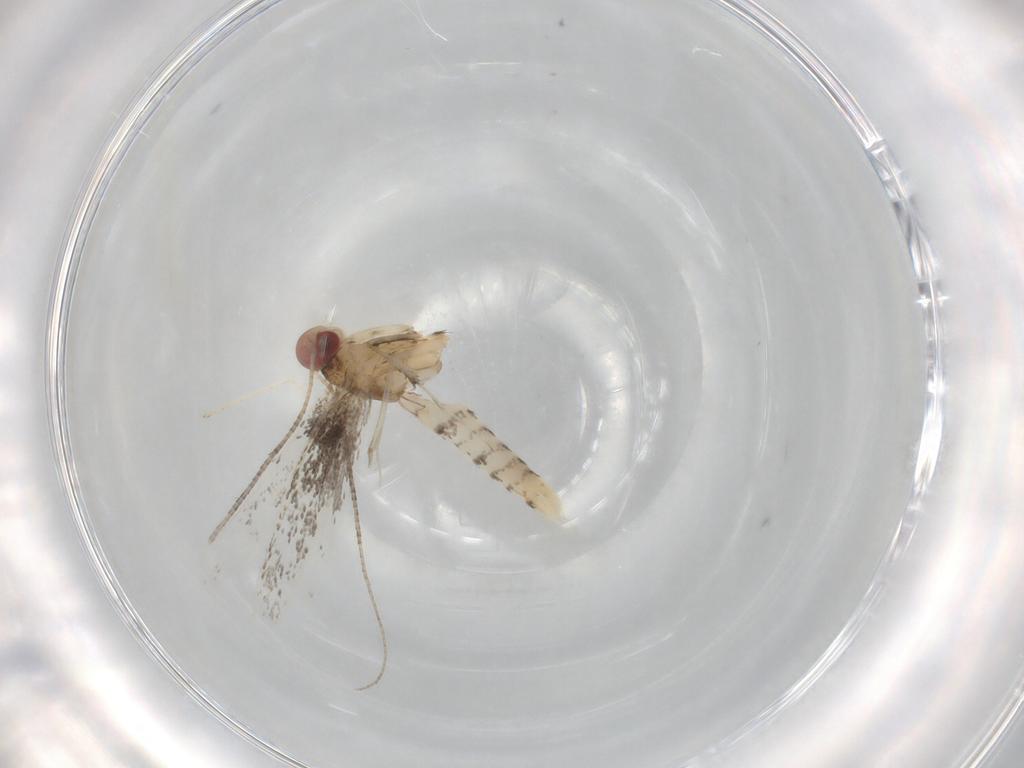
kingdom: Animalia
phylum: Arthropoda
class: Insecta
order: Lepidoptera
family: Gracillariidae
